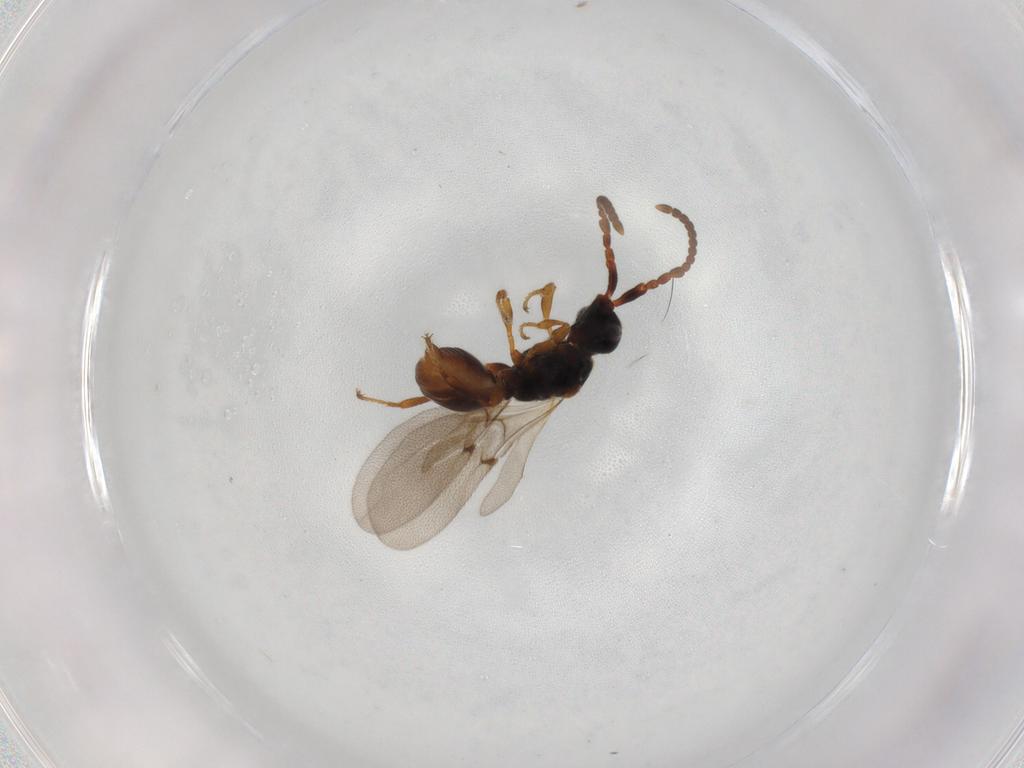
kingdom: Animalia
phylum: Arthropoda
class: Insecta
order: Hymenoptera
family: Diapriidae
